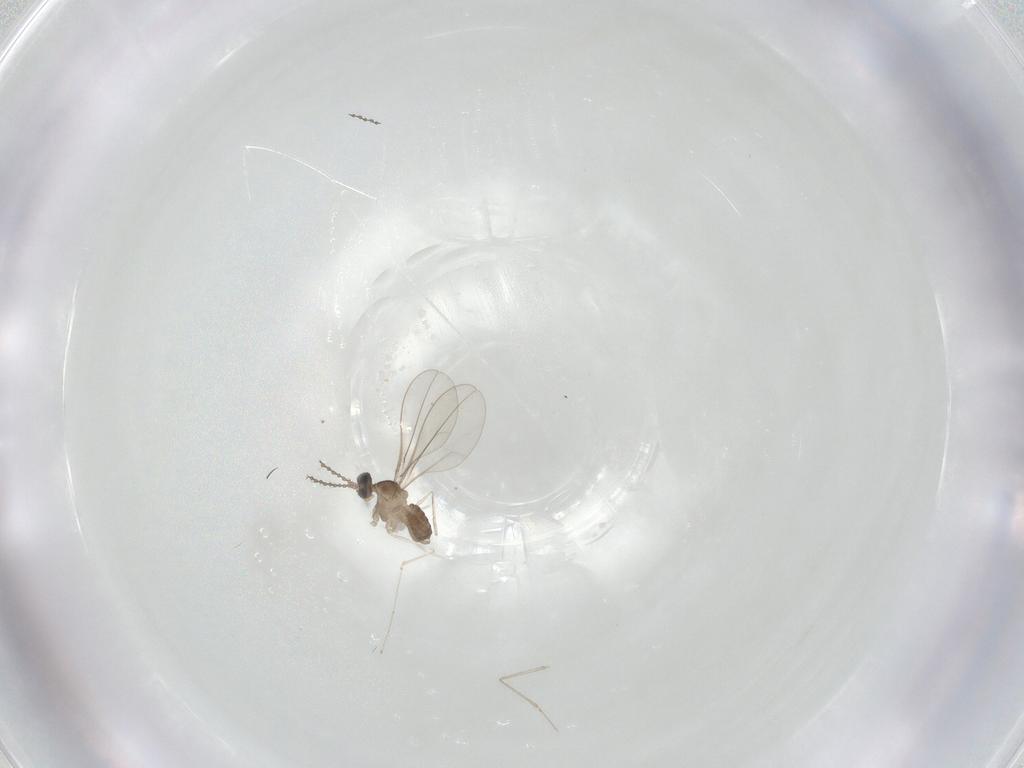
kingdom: Animalia
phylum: Arthropoda
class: Insecta
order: Diptera
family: Cecidomyiidae
